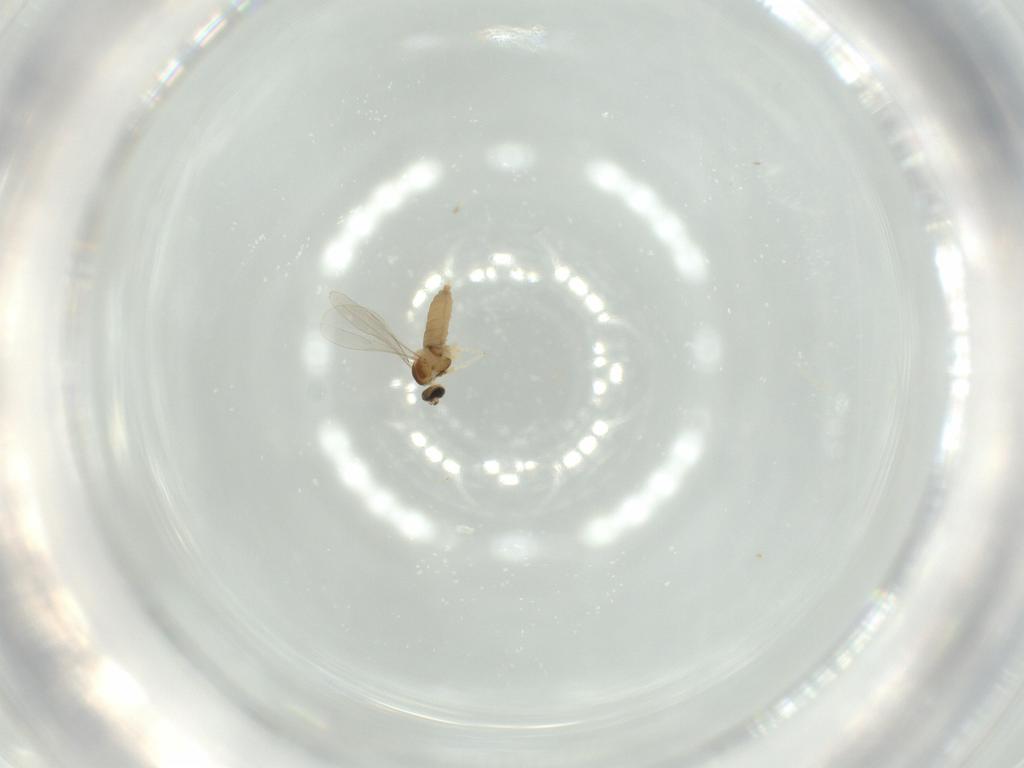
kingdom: Animalia
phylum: Arthropoda
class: Insecta
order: Diptera
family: Cecidomyiidae
